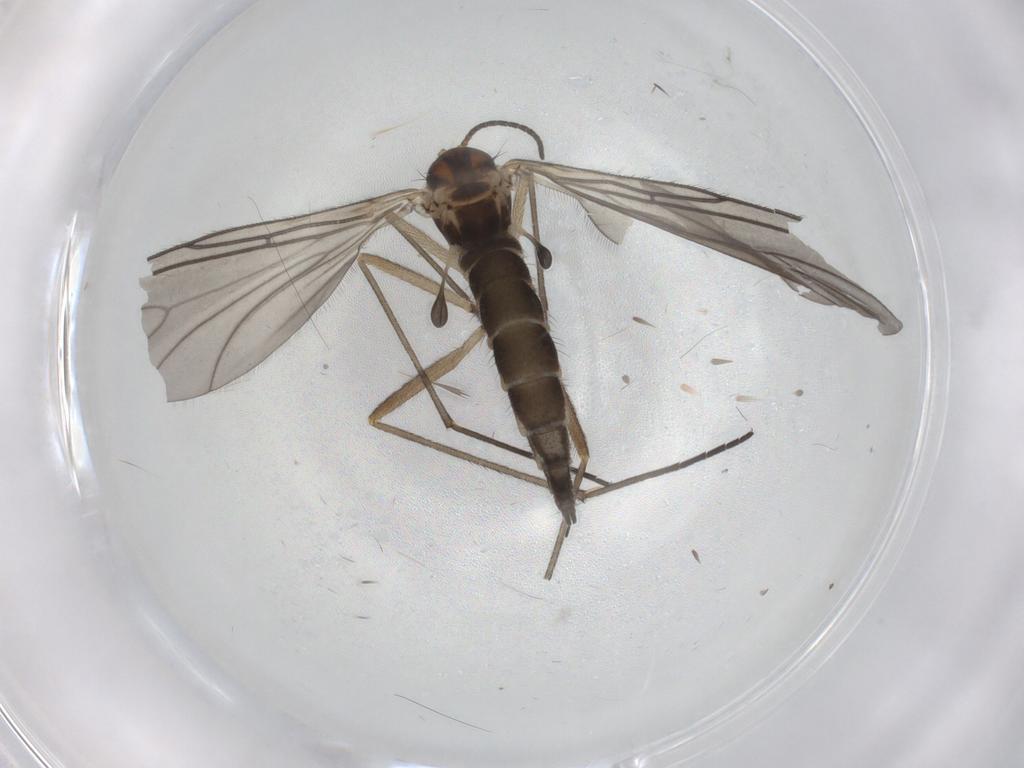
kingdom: Animalia
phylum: Arthropoda
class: Insecta
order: Diptera
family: Sciaridae
